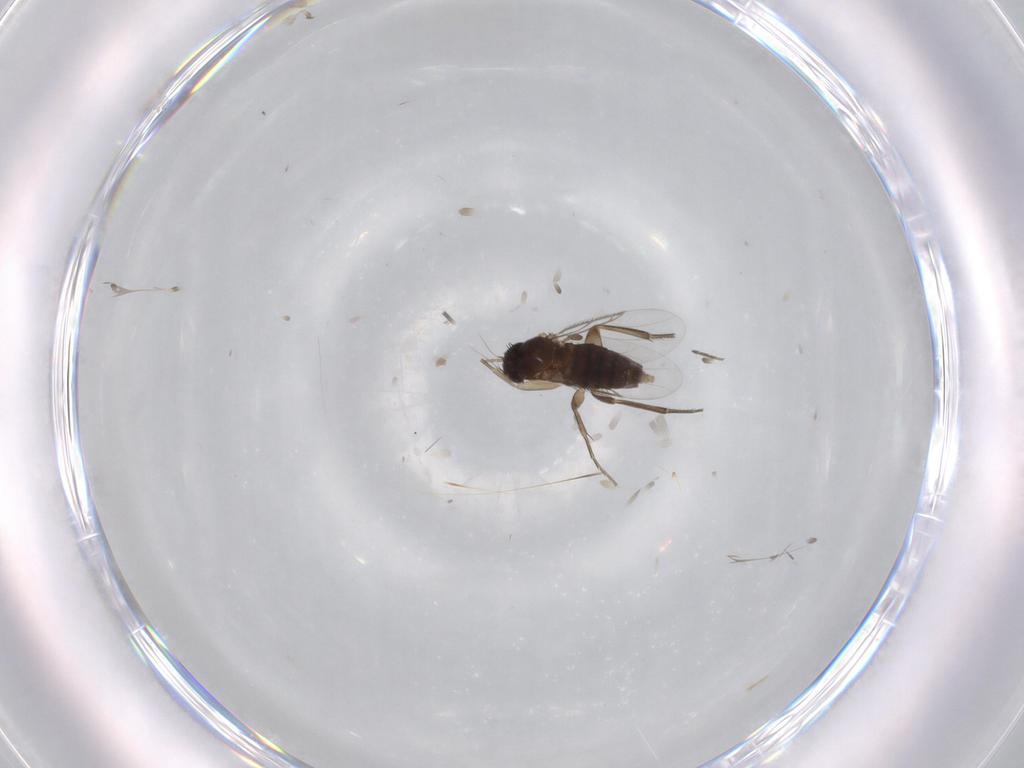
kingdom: Animalia
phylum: Arthropoda
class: Insecta
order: Diptera
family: Phoridae
